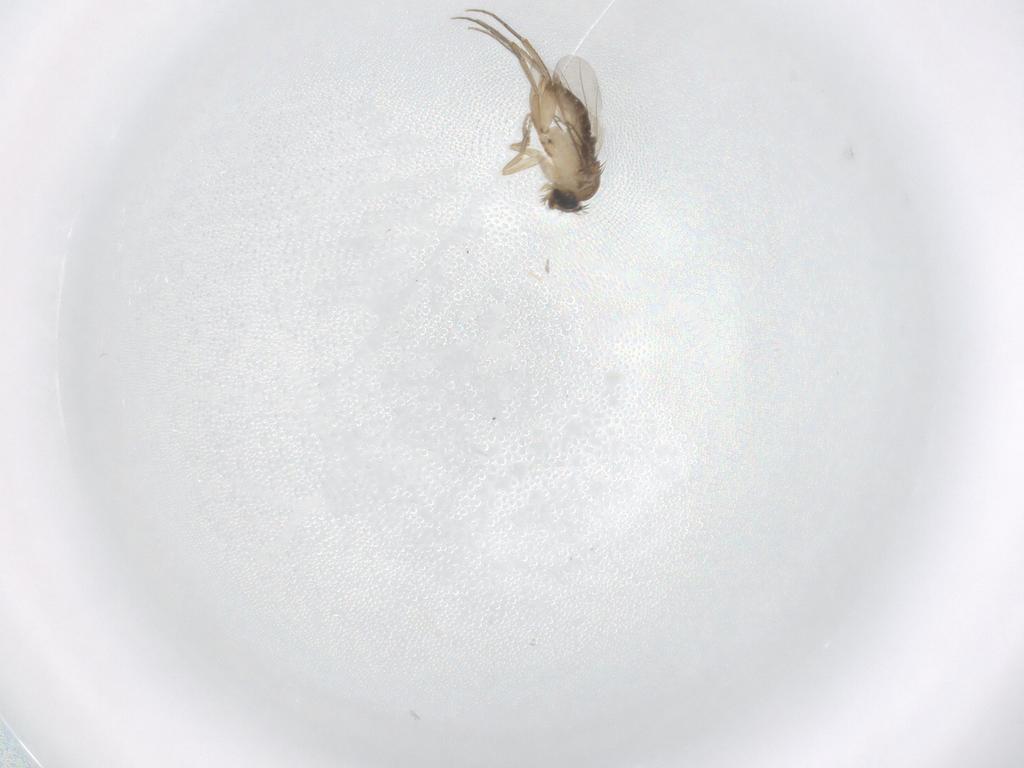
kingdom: Animalia
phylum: Arthropoda
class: Insecta
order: Diptera
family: Phoridae
